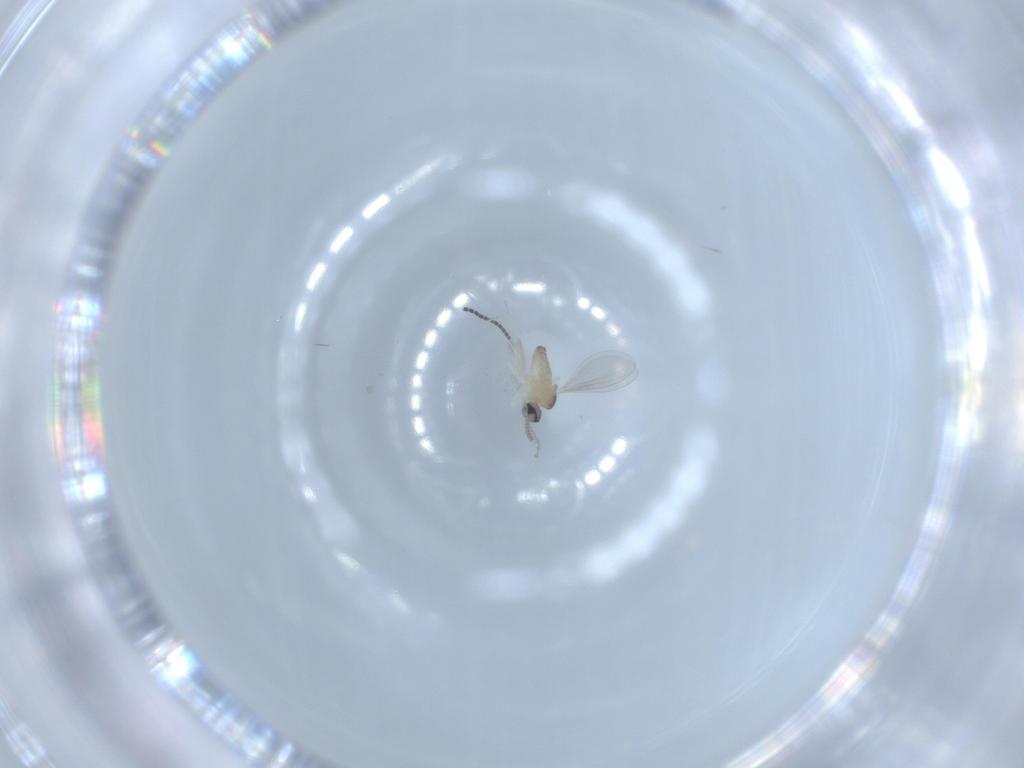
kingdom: Animalia
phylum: Arthropoda
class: Insecta
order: Diptera
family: Cecidomyiidae
